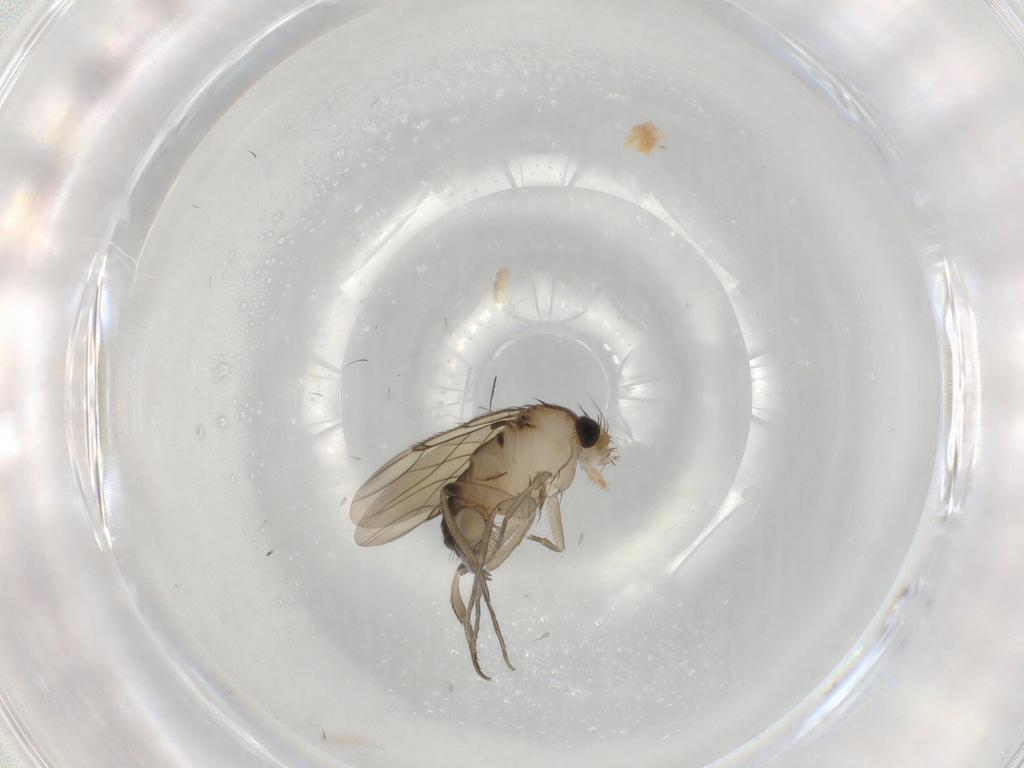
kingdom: Animalia
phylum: Arthropoda
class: Insecta
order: Diptera
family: Phoridae
